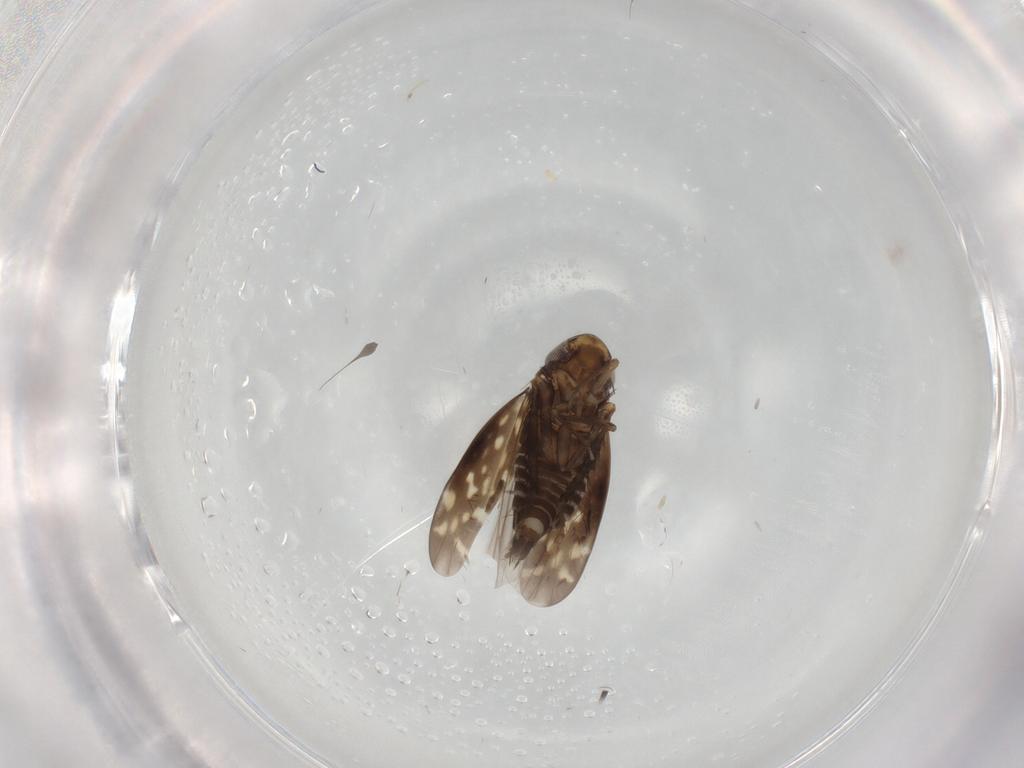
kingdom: Animalia
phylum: Arthropoda
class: Insecta
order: Hemiptera
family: Cicadellidae
